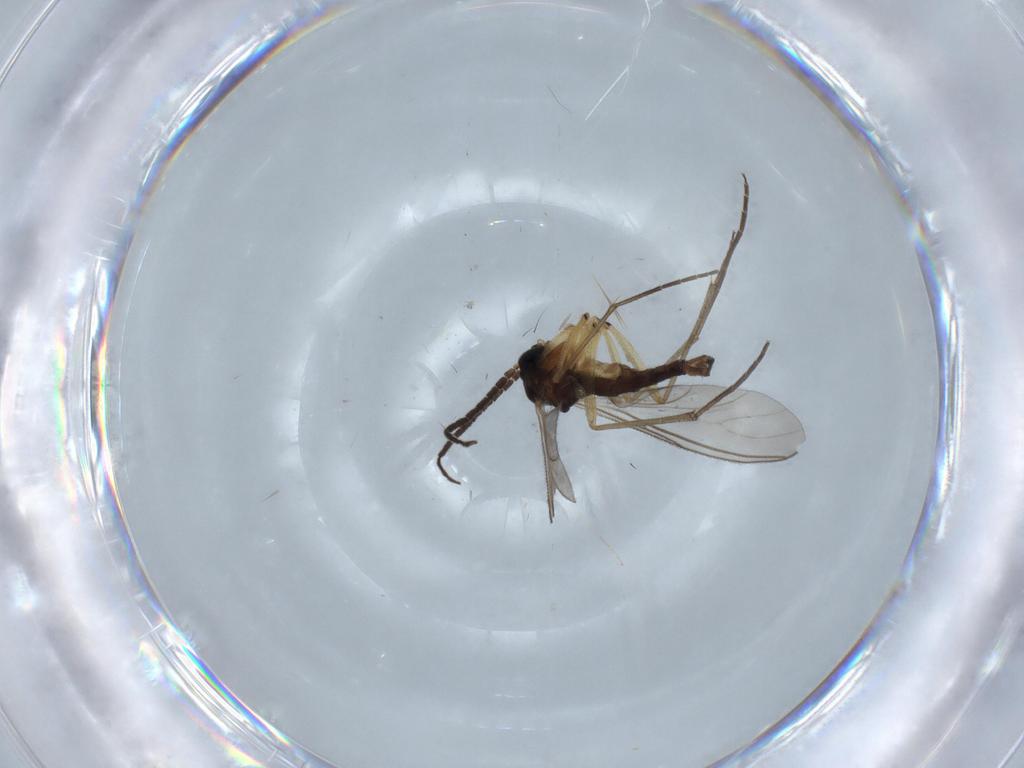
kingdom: Animalia
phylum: Arthropoda
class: Insecta
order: Diptera
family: Sciaridae
